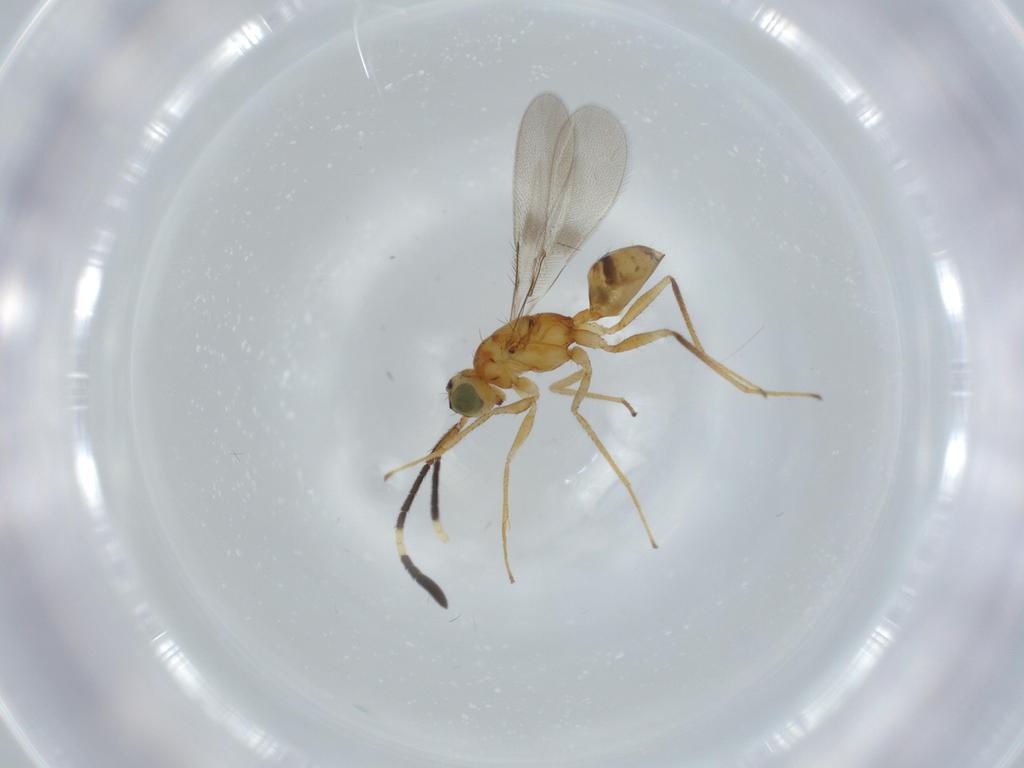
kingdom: Animalia
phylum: Arthropoda
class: Insecta
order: Hymenoptera
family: Mymaridae
